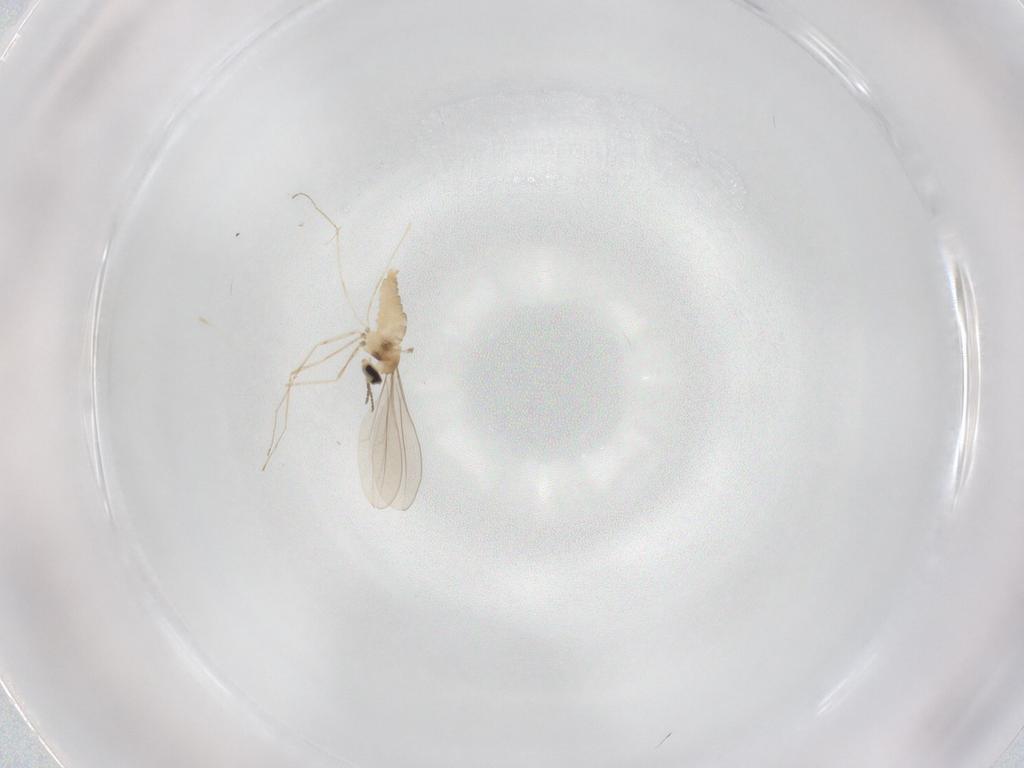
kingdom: Animalia
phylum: Arthropoda
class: Insecta
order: Diptera
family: Cecidomyiidae
